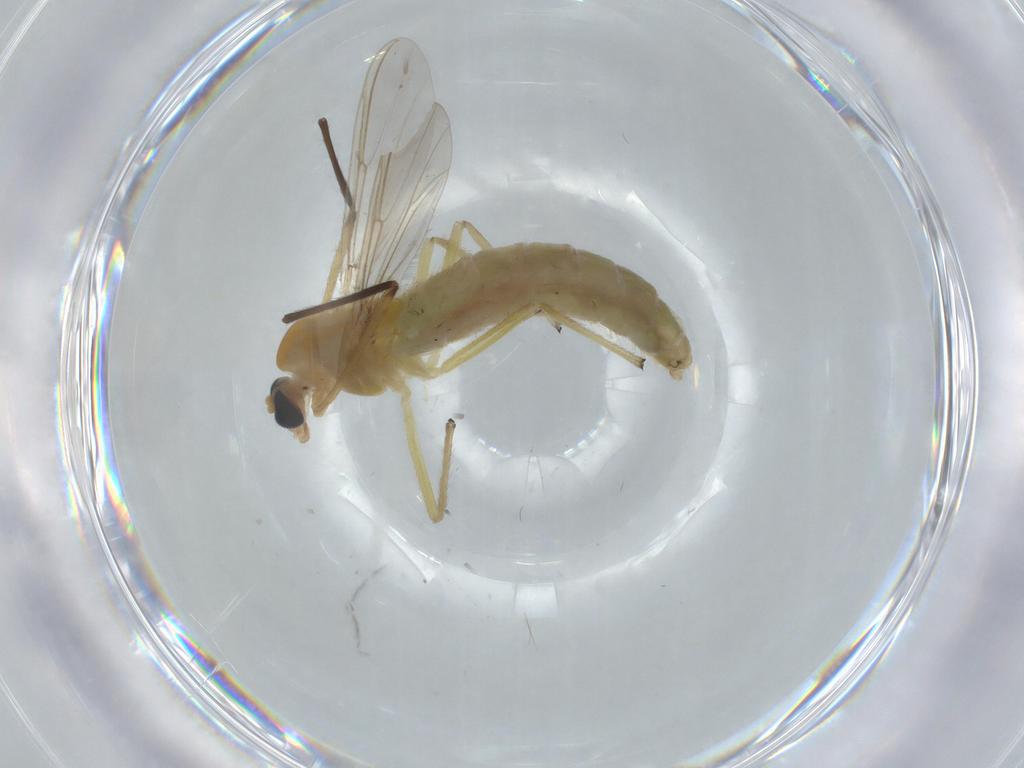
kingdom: Animalia
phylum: Arthropoda
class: Insecta
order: Diptera
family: Chironomidae
